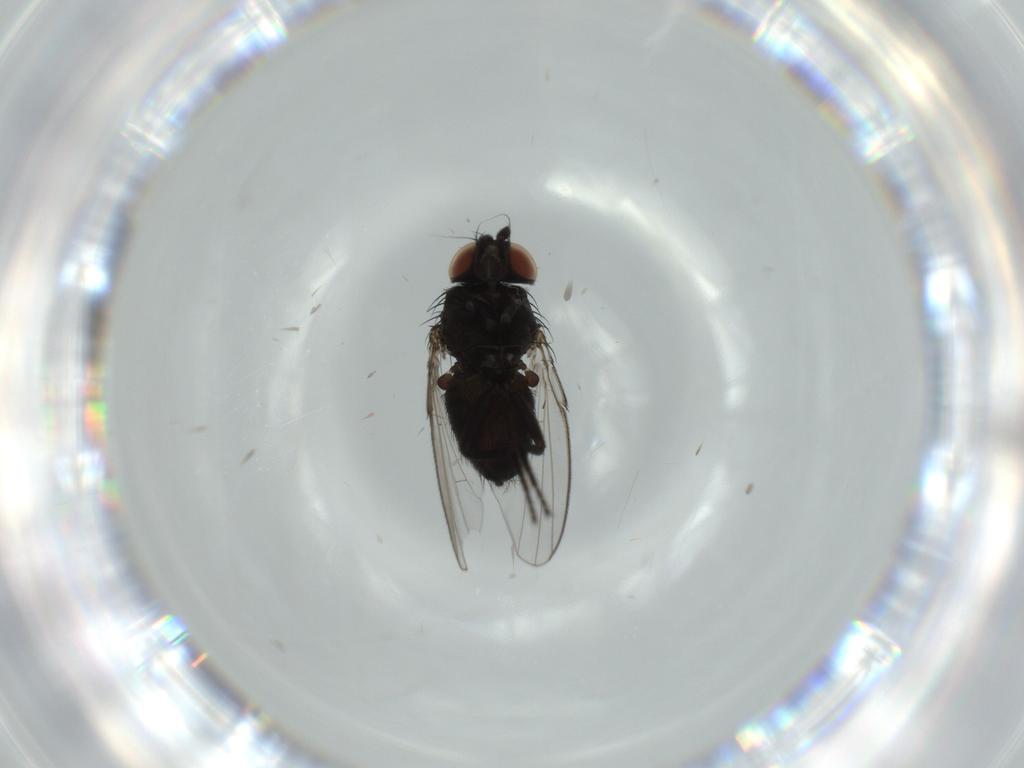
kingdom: Animalia
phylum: Arthropoda
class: Insecta
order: Diptera
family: Milichiidae
